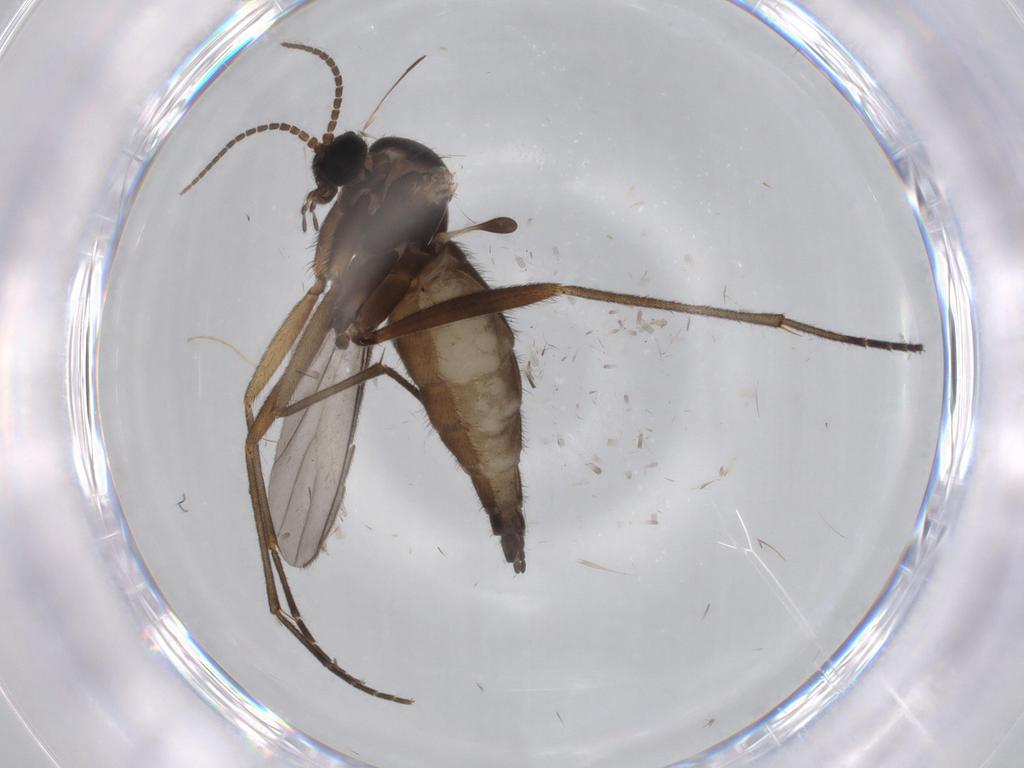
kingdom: Animalia
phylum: Arthropoda
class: Insecta
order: Diptera
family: Sciaridae
